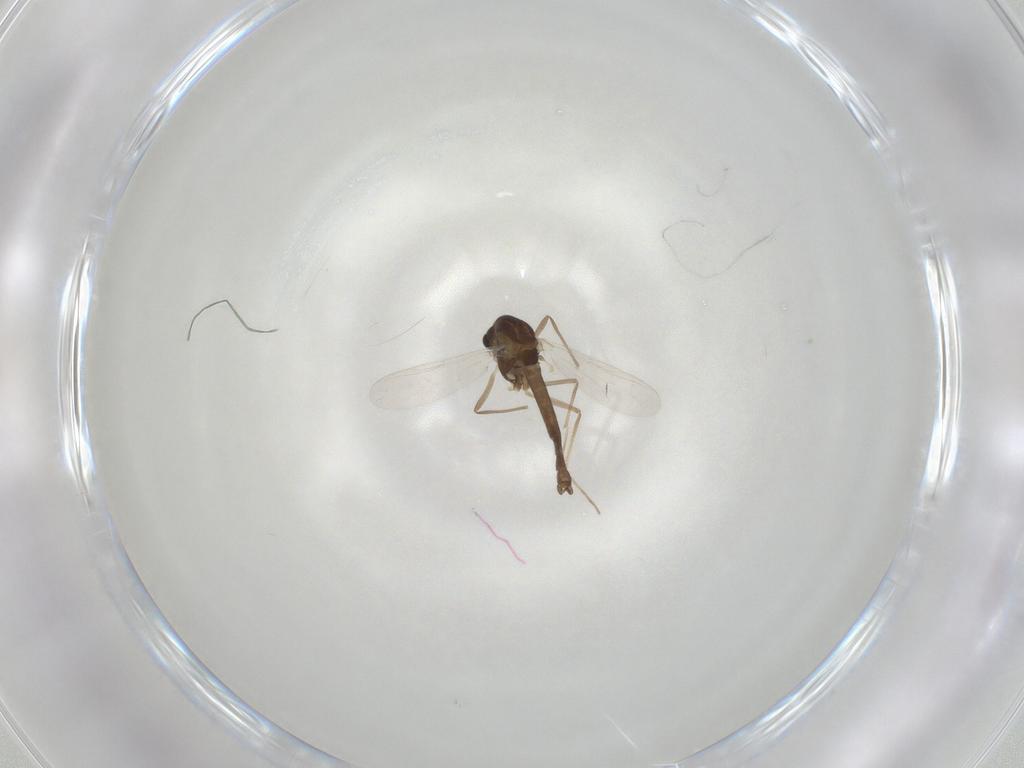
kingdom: Animalia
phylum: Arthropoda
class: Insecta
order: Diptera
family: Chironomidae
